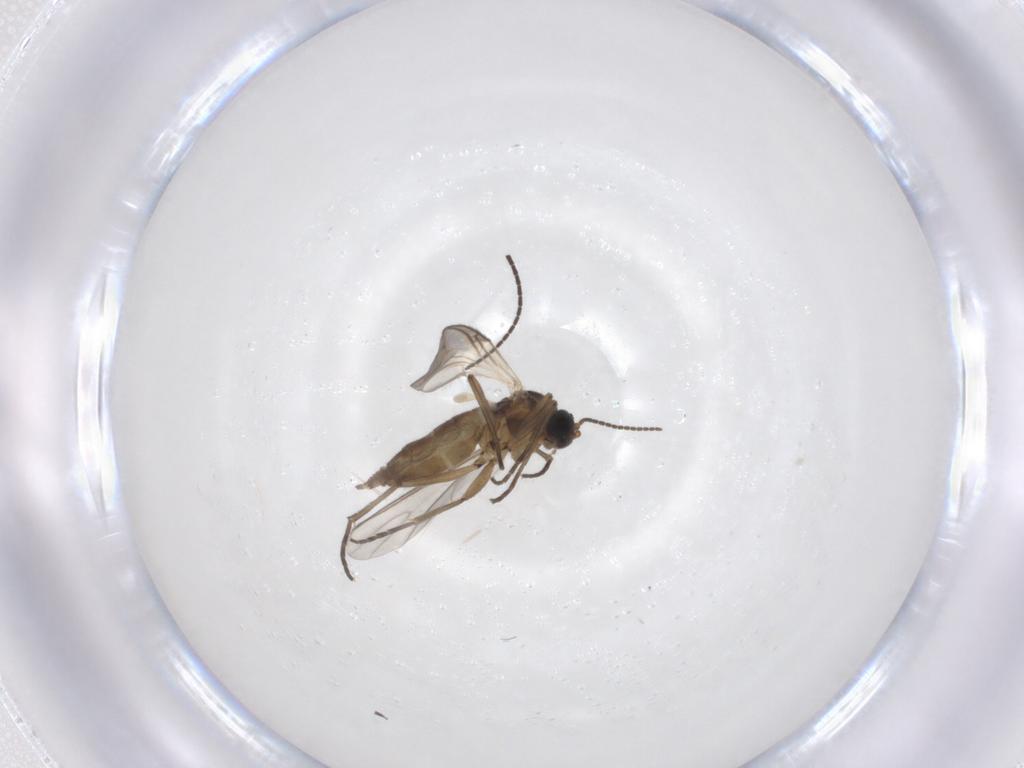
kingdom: Animalia
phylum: Arthropoda
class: Insecta
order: Diptera
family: Sciaridae
